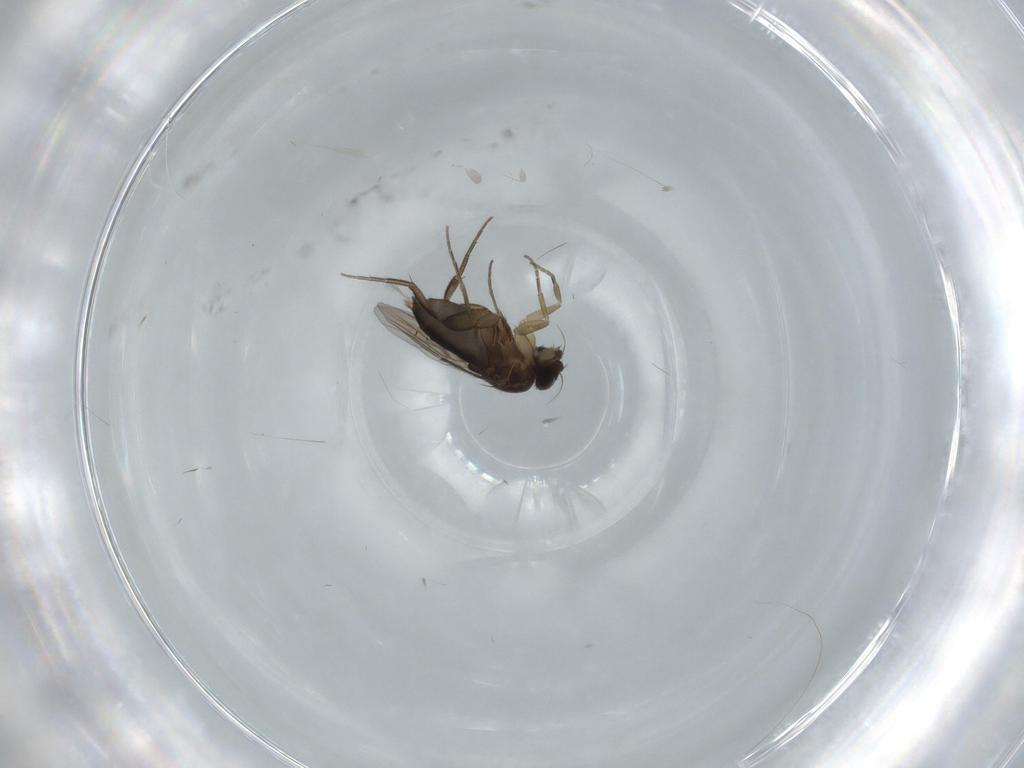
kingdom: Animalia
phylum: Arthropoda
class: Insecta
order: Diptera
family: Phoridae
